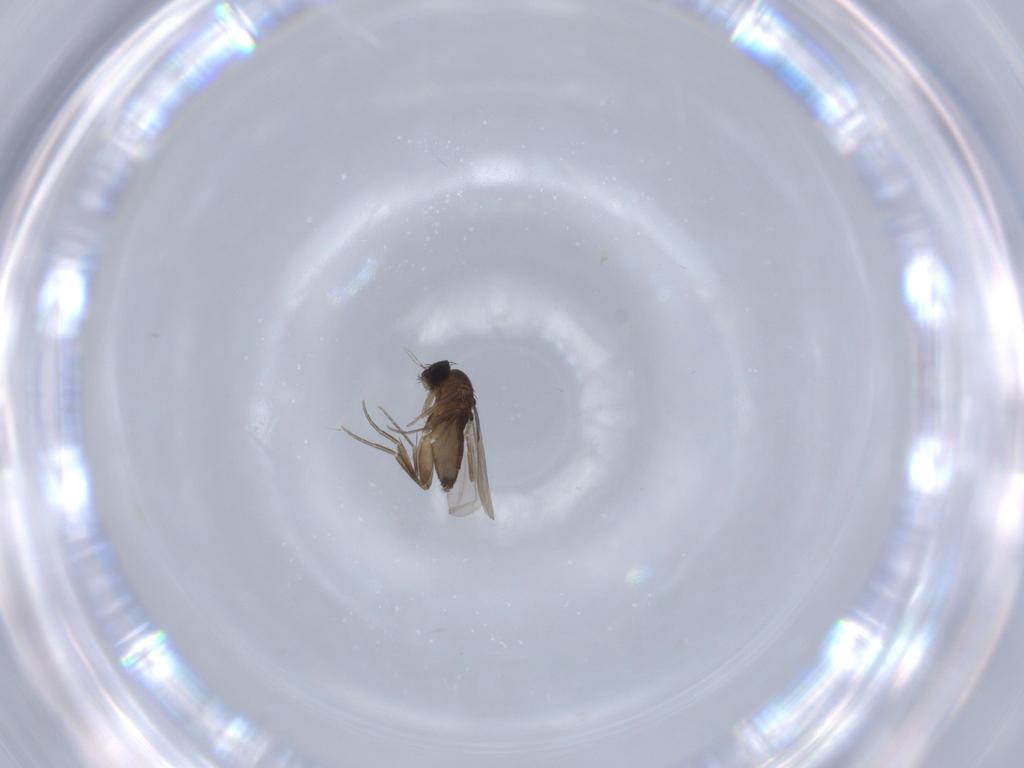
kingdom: Animalia
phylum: Arthropoda
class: Insecta
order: Diptera
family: Phoridae
